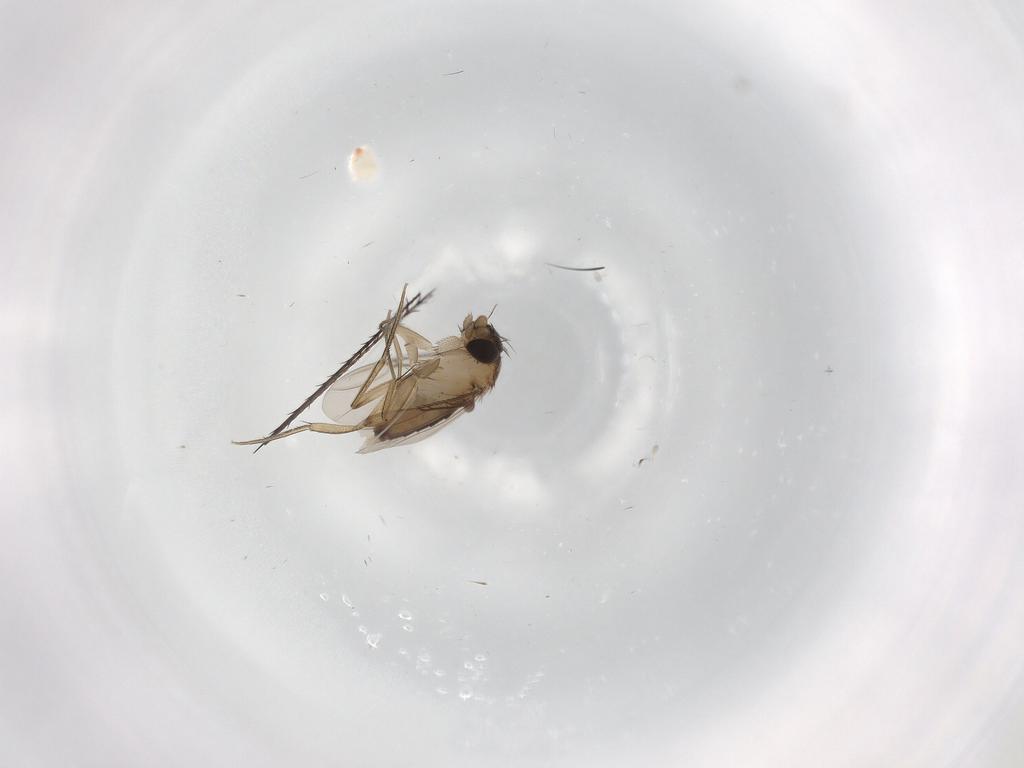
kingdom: Animalia
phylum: Arthropoda
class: Insecta
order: Diptera
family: Phoridae
